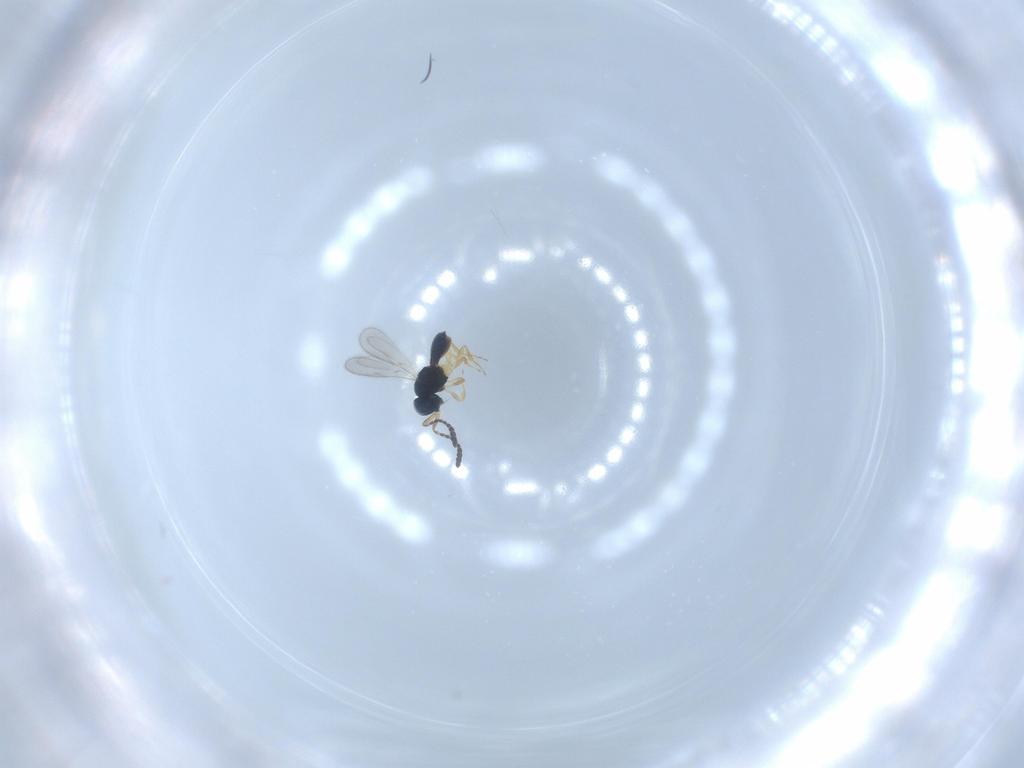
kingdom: Animalia
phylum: Arthropoda
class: Insecta
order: Hymenoptera
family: Scelionidae
